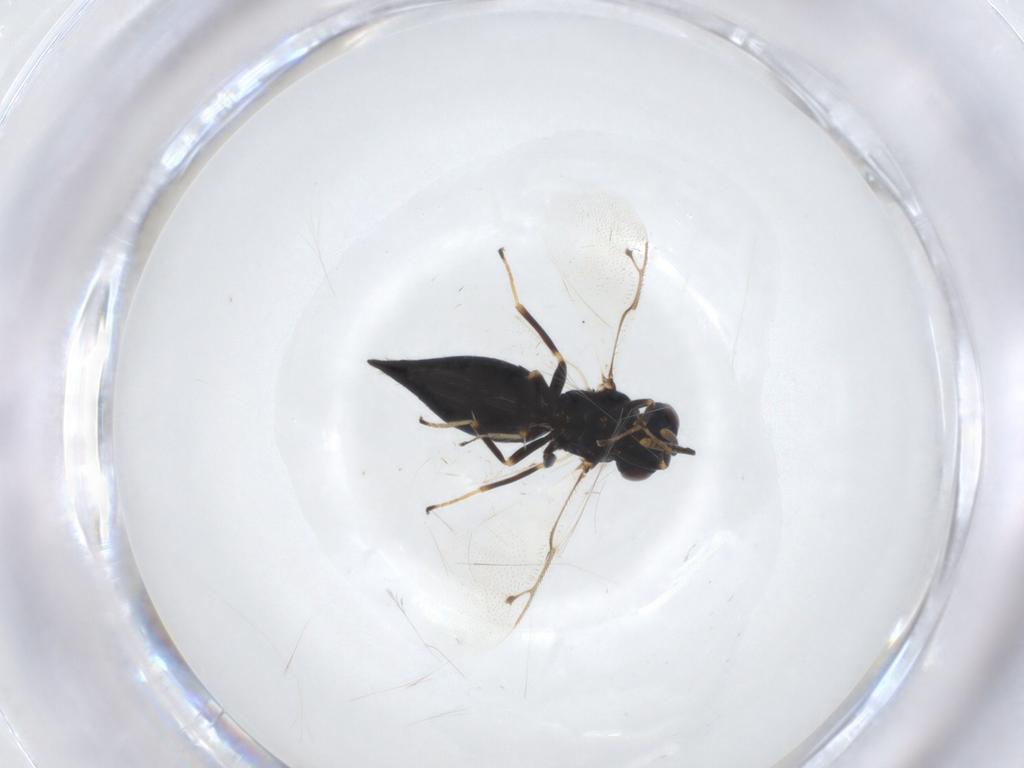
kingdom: Animalia
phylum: Arthropoda
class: Insecta
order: Hymenoptera
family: Pteromalidae
